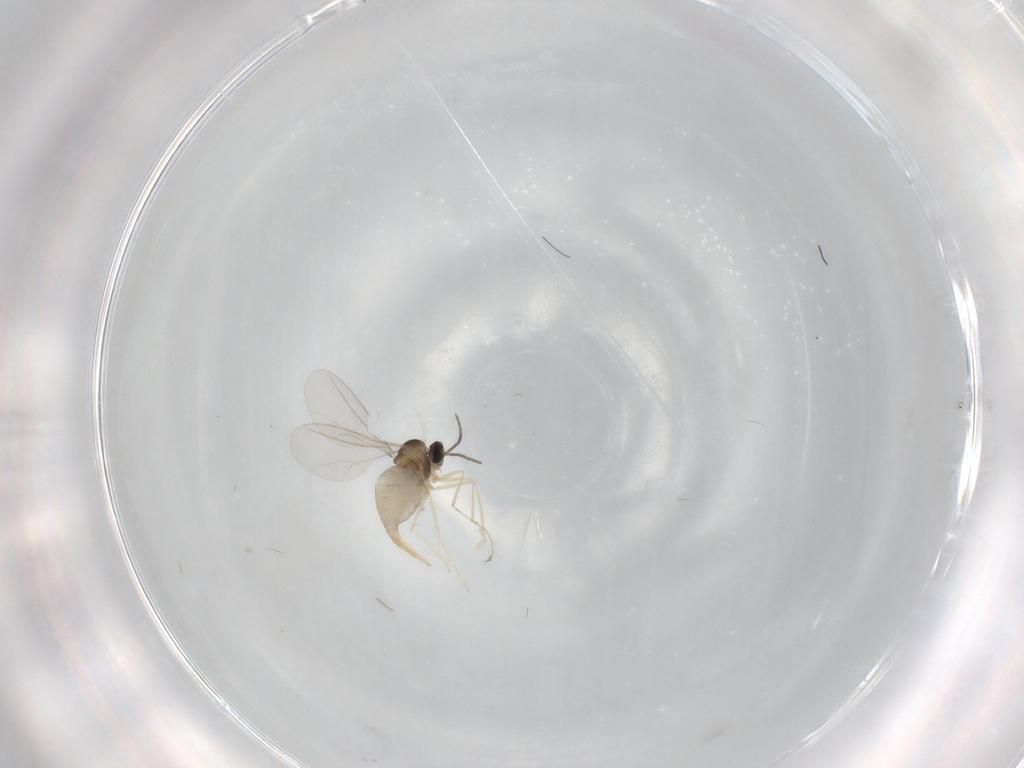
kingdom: Animalia
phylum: Arthropoda
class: Insecta
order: Diptera
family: Cecidomyiidae
